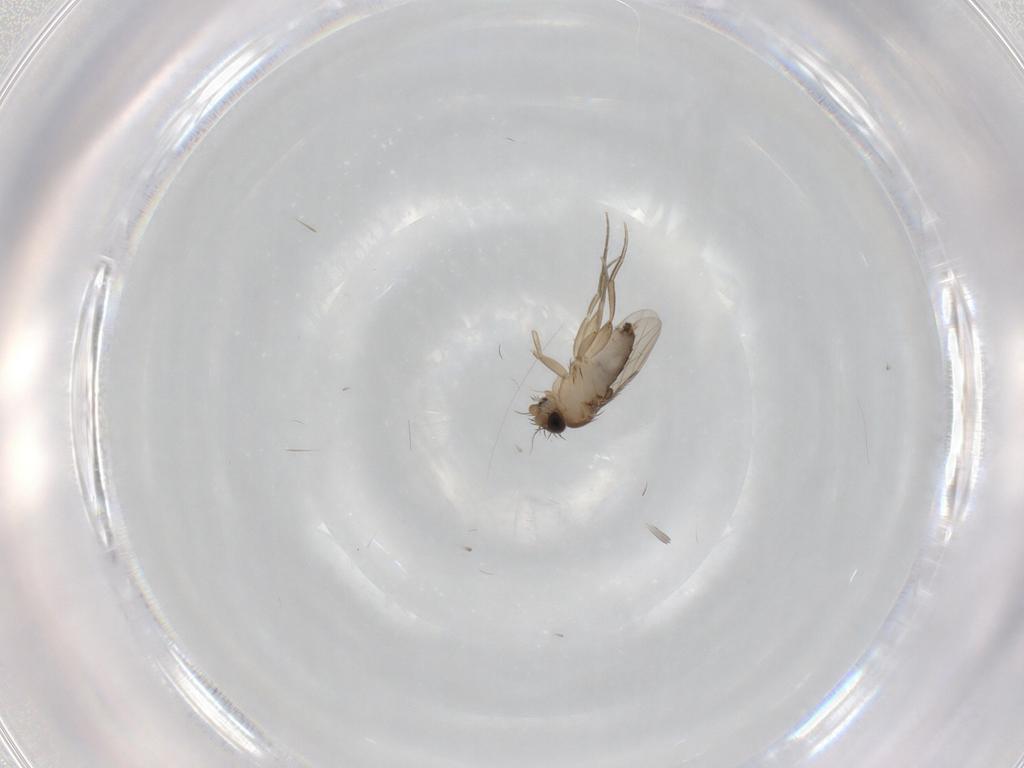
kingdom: Animalia
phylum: Arthropoda
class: Insecta
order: Diptera
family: Phoridae
